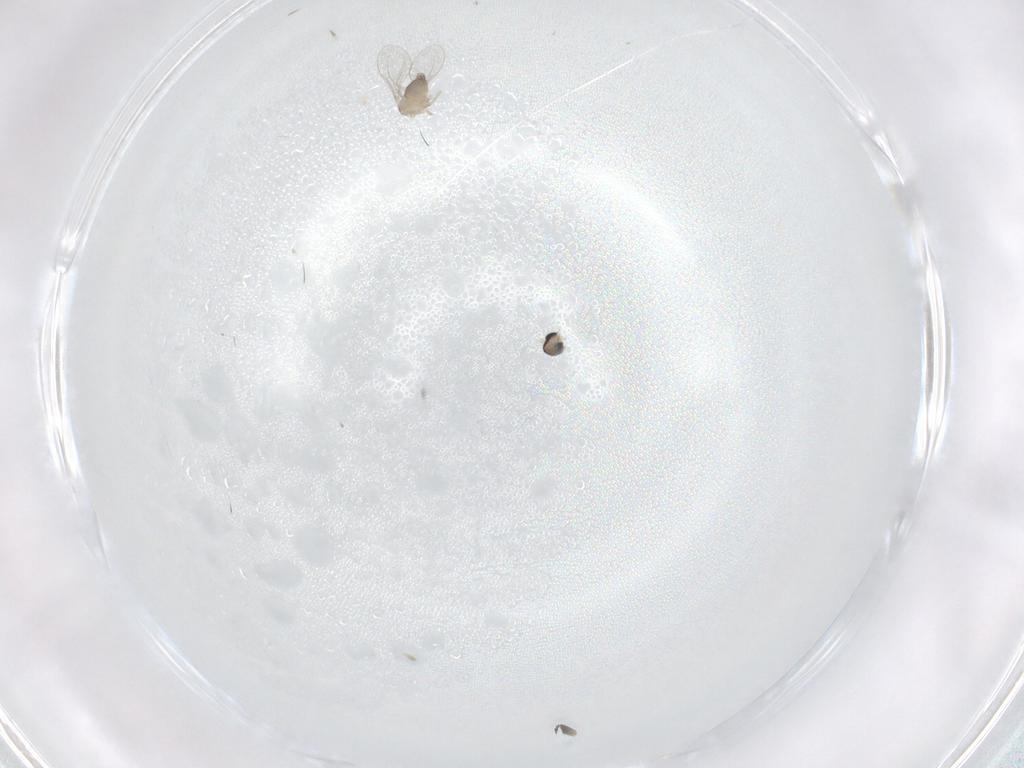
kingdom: Animalia
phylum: Arthropoda
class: Insecta
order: Diptera
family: Cecidomyiidae
